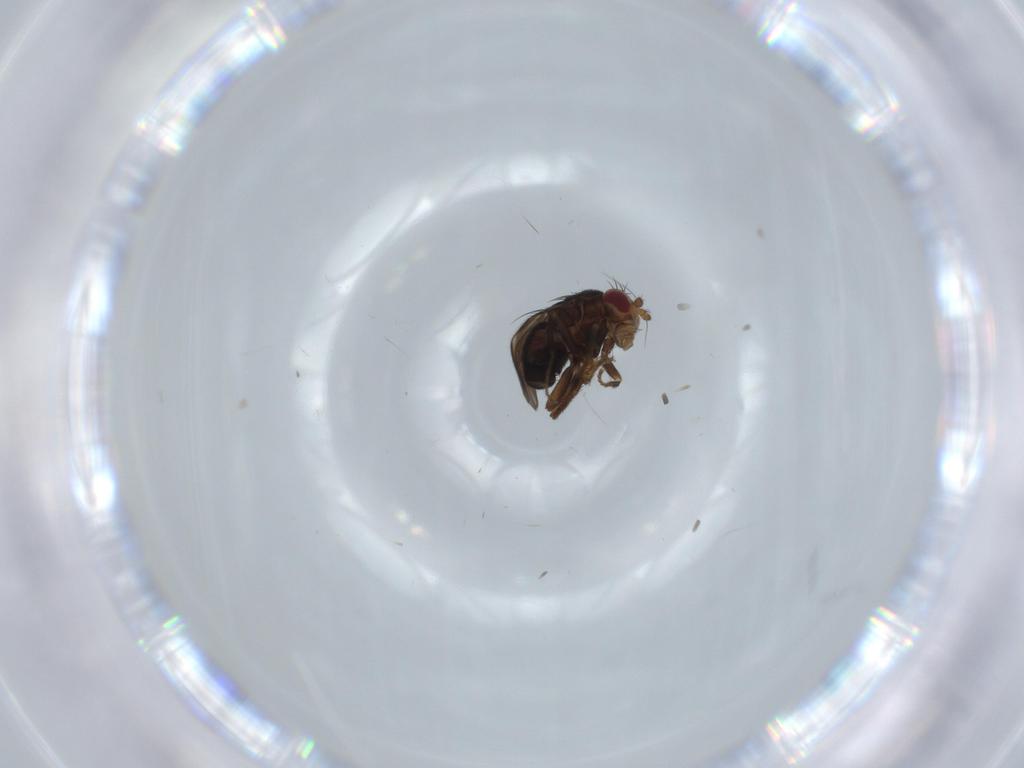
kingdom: Animalia
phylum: Arthropoda
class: Insecta
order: Diptera
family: Sphaeroceridae
